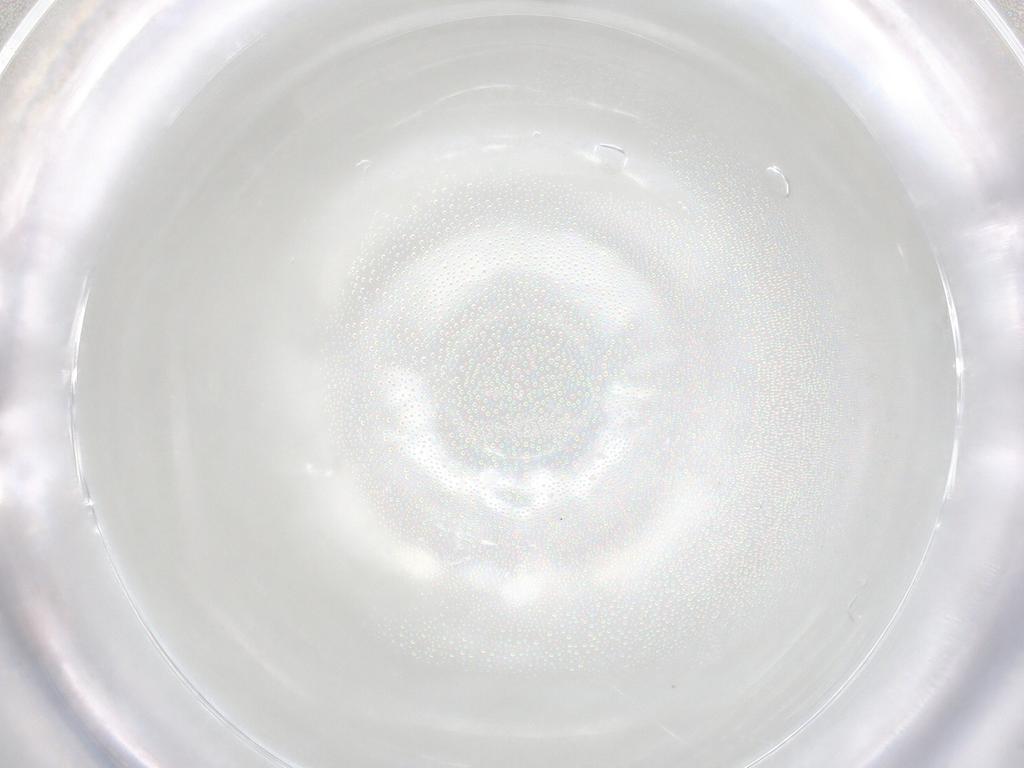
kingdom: Animalia
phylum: Arthropoda
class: Insecta
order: Diptera
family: Cecidomyiidae
